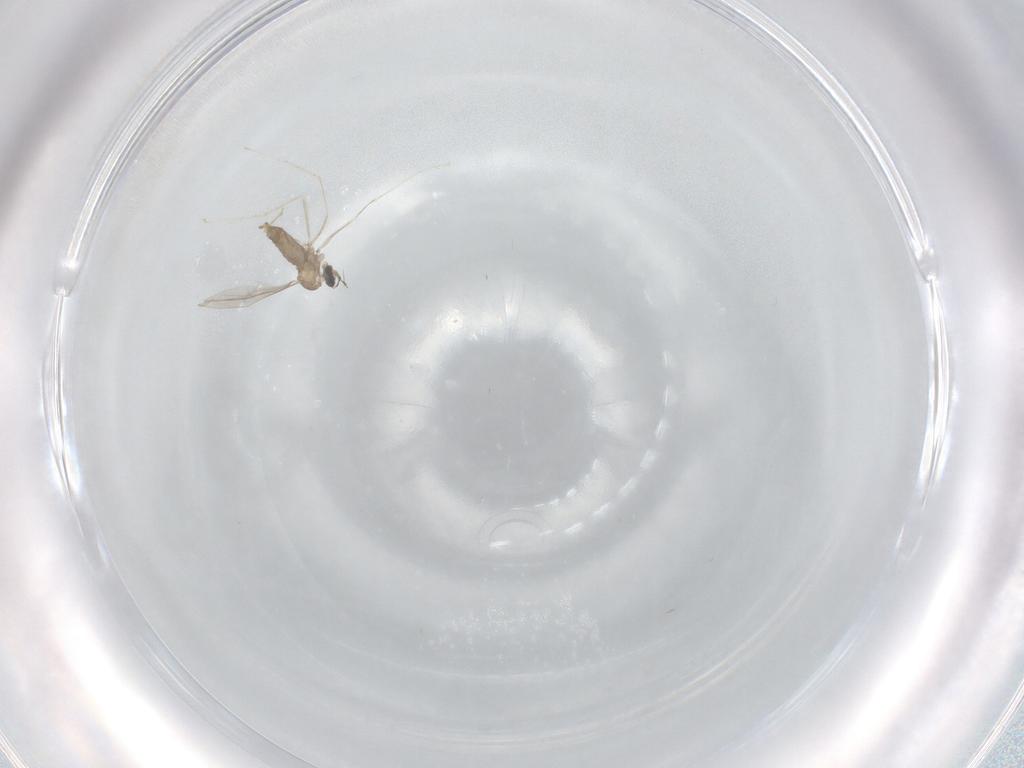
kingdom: Animalia
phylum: Arthropoda
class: Insecta
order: Diptera
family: Cecidomyiidae
